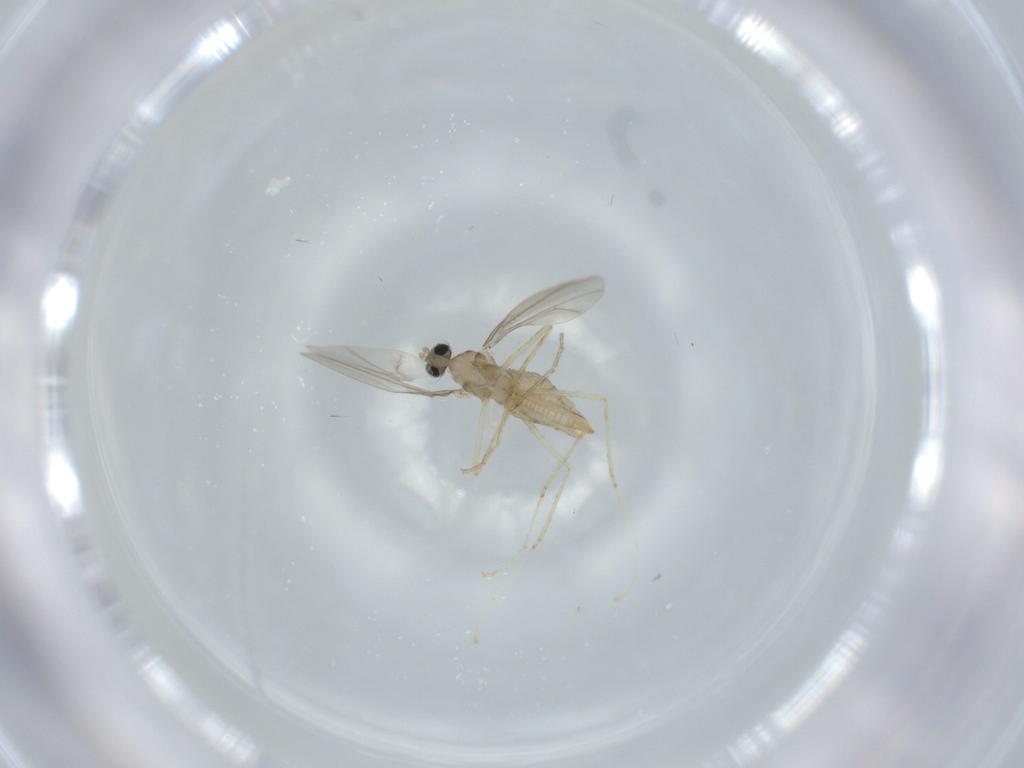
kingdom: Animalia
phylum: Arthropoda
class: Insecta
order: Diptera
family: Cecidomyiidae
